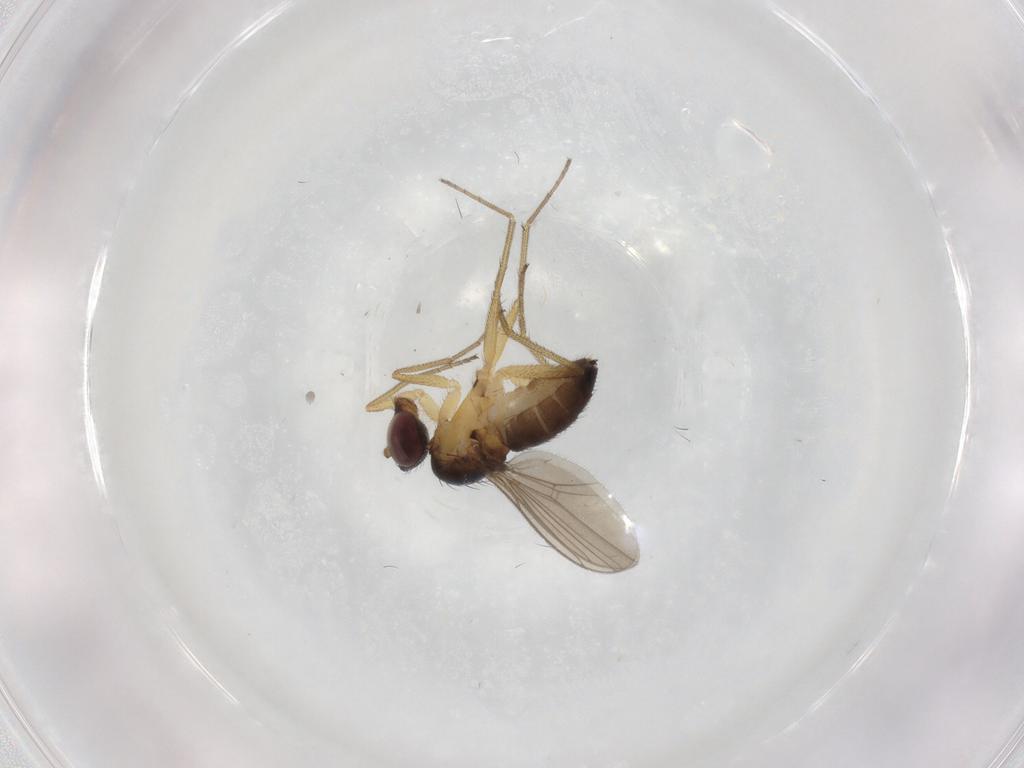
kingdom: Animalia
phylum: Arthropoda
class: Insecta
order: Diptera
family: Dolichopodidae
